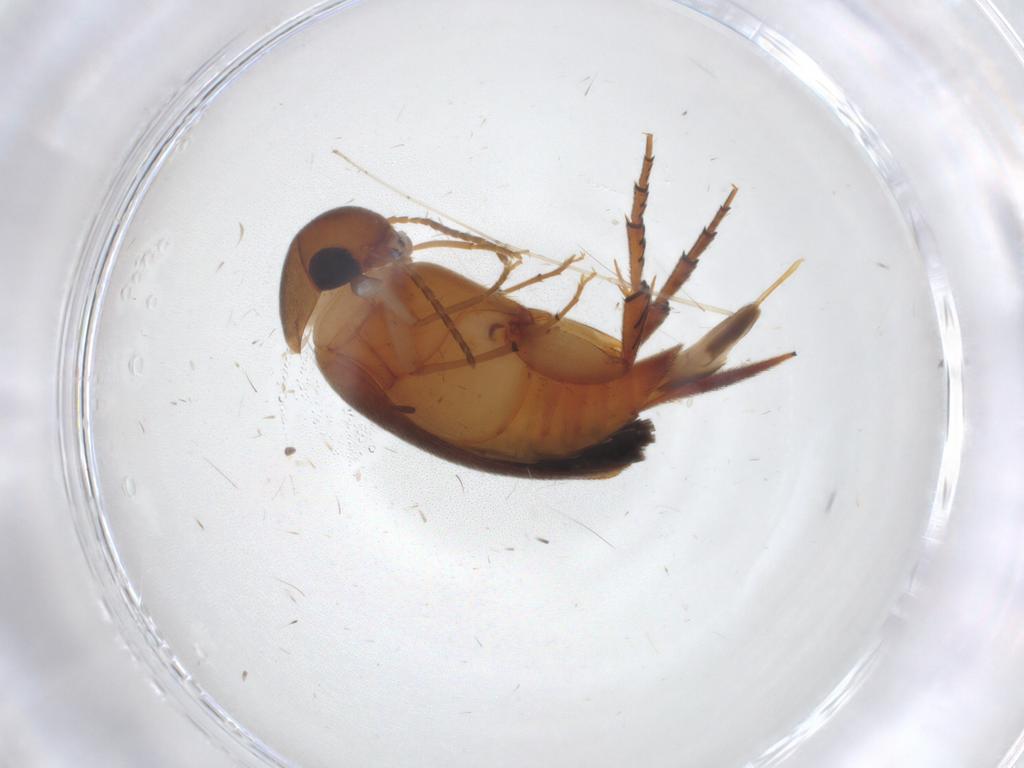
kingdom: Animalia
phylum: Arthropoda
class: Insecta
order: Coleoptera
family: Mordellidae
